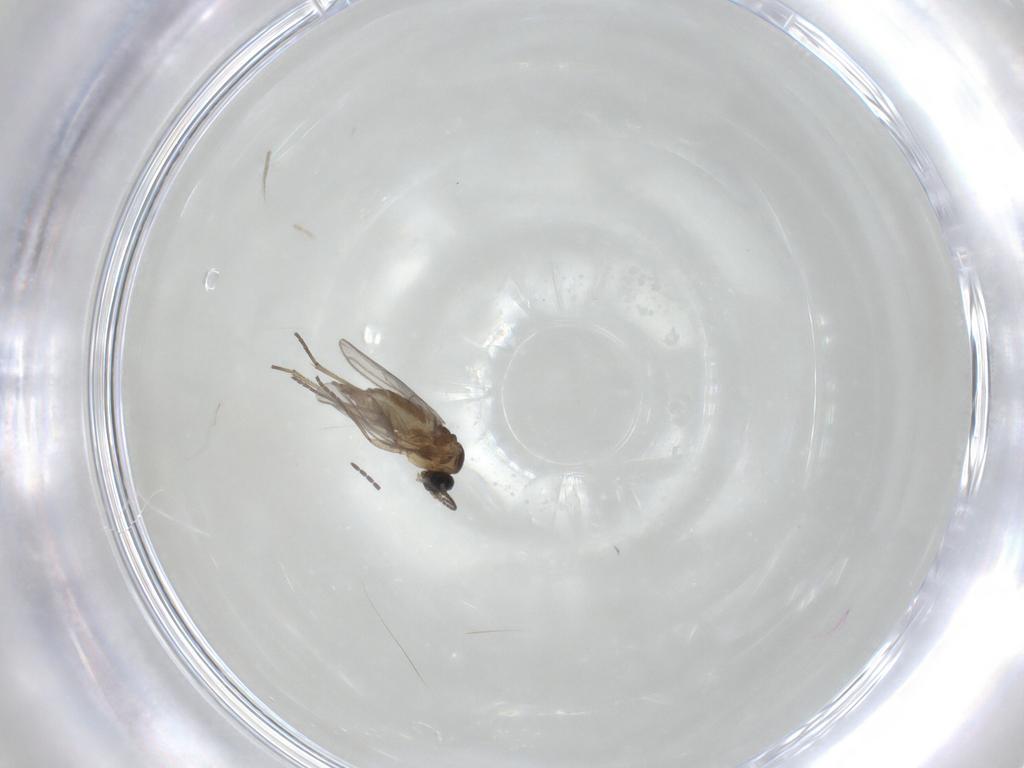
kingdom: Animalia
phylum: Arthropoda
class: Insecta
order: Diptera
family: Sciaridae
